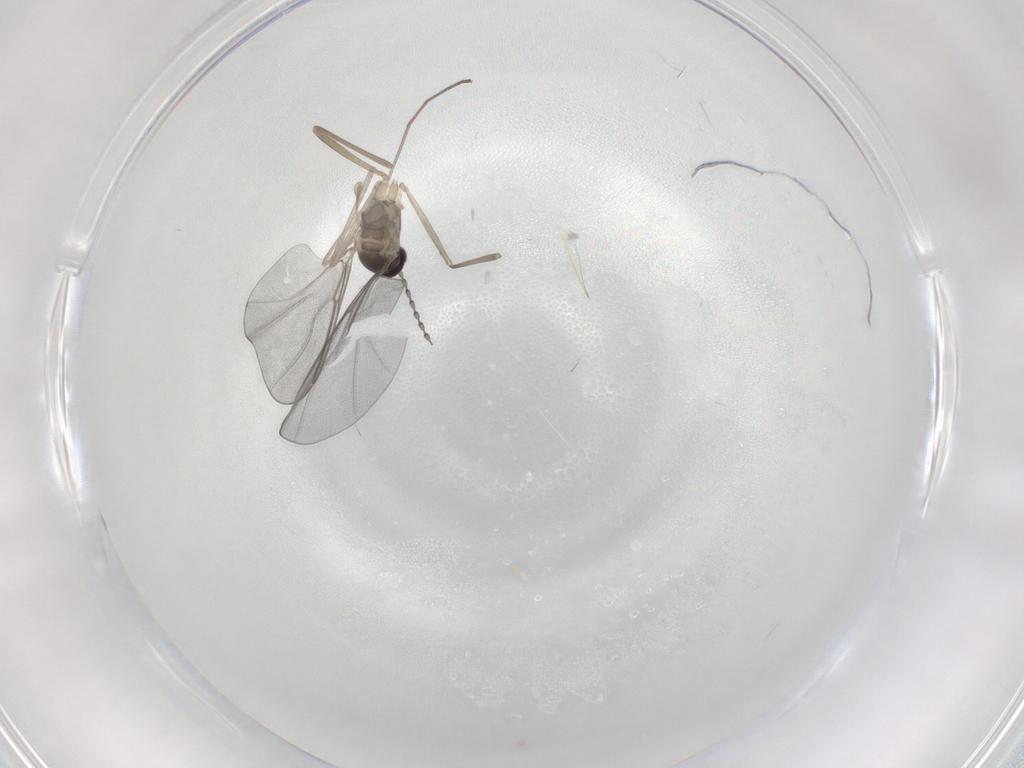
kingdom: Animalia
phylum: Arthropoda
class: Insecta
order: Diptera
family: Cecidomyiidae
